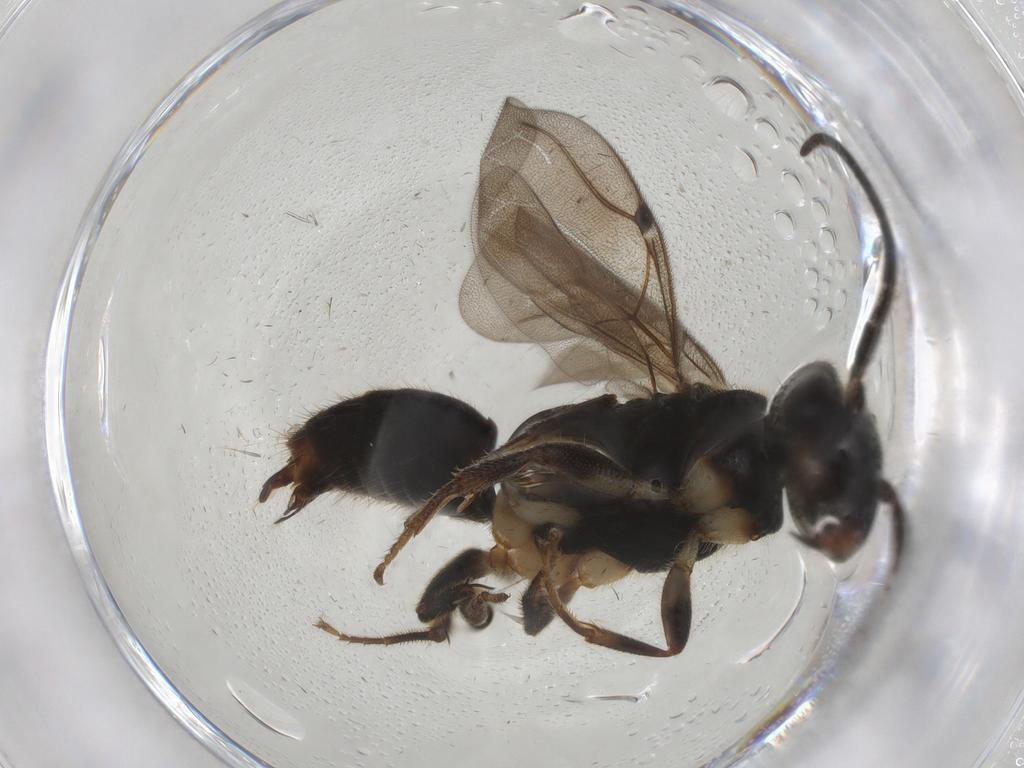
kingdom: Animalia
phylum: Arthropoda
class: Insecta
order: Hymenoptera
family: Bethylidae
